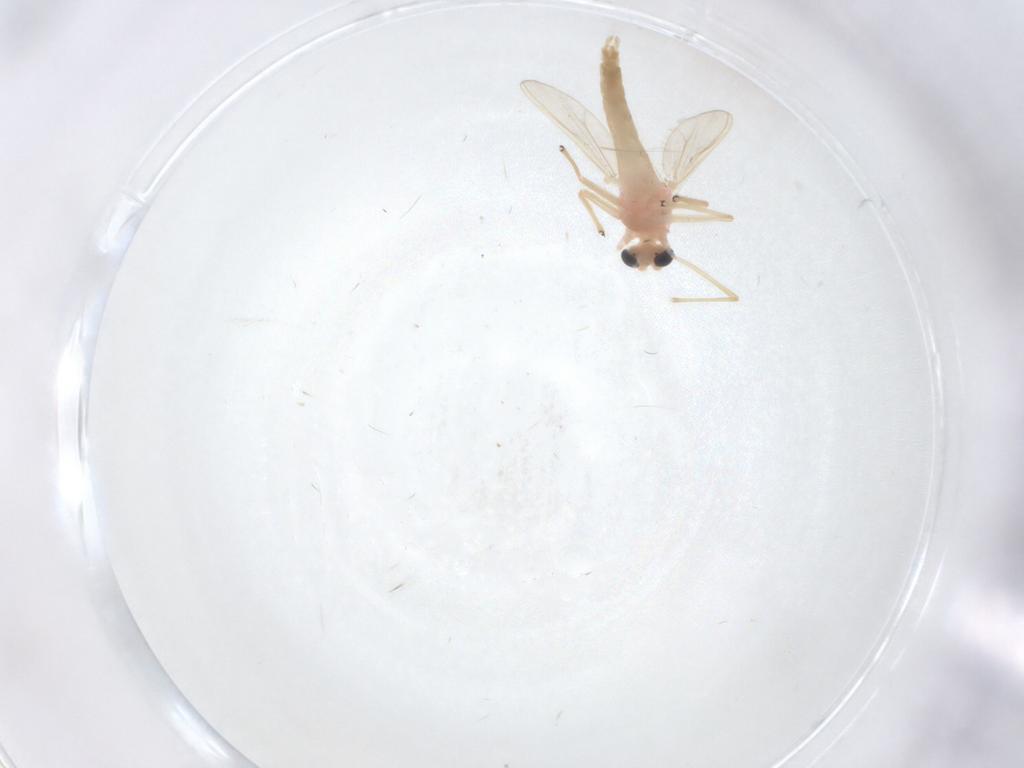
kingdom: Animalia
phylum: Arthropoda
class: Insecta
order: Diptera
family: Chironomidae
